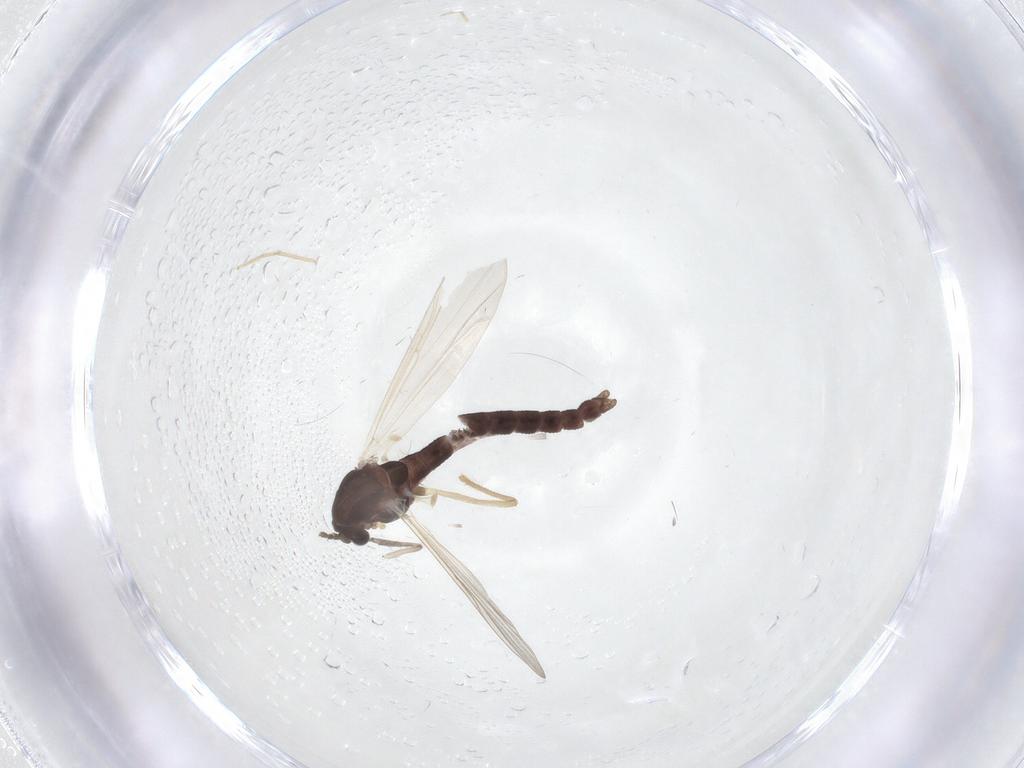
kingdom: Animalia
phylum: Arthropoda
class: Insecta
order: Diptera
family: Chironomidae
